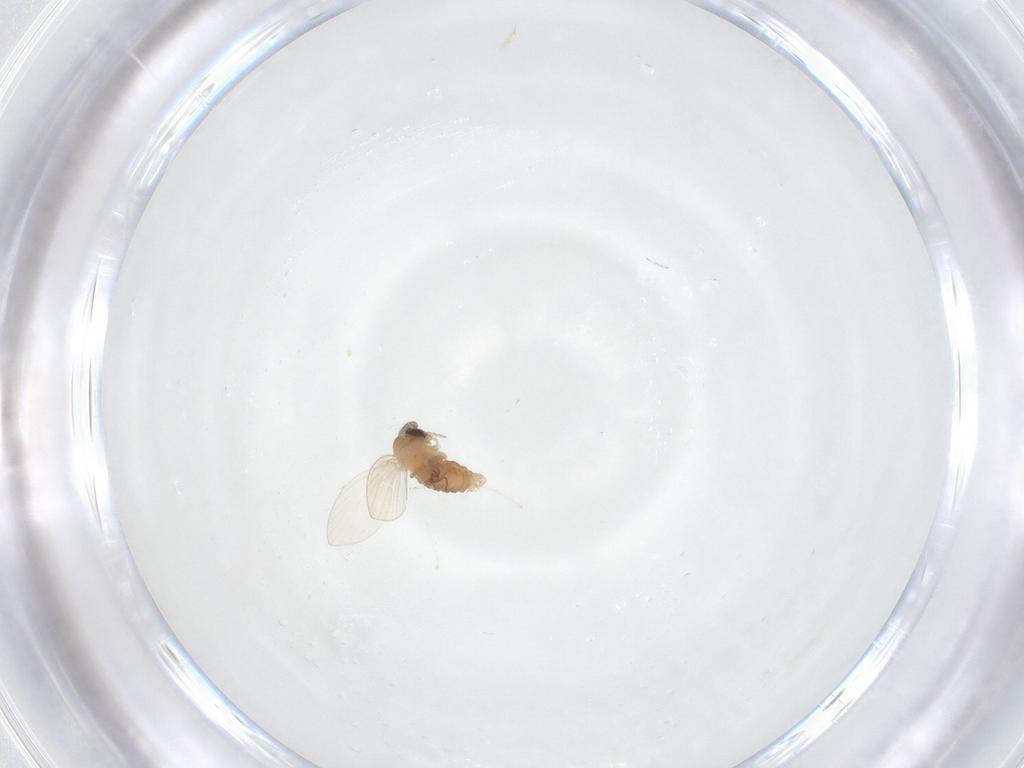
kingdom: Animalia
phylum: Arthropoda
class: Insecta
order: Diptera
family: Psychodidae
